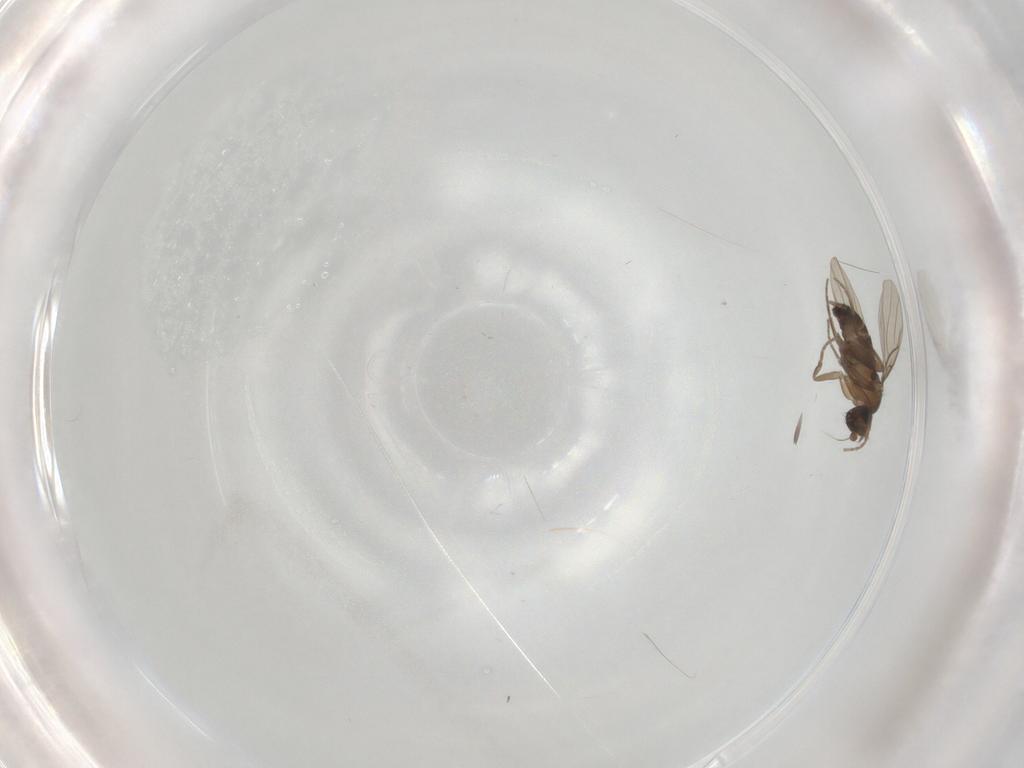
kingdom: Animalia
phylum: Arthropoda
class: Insecta
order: Diptera
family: Phoridae
